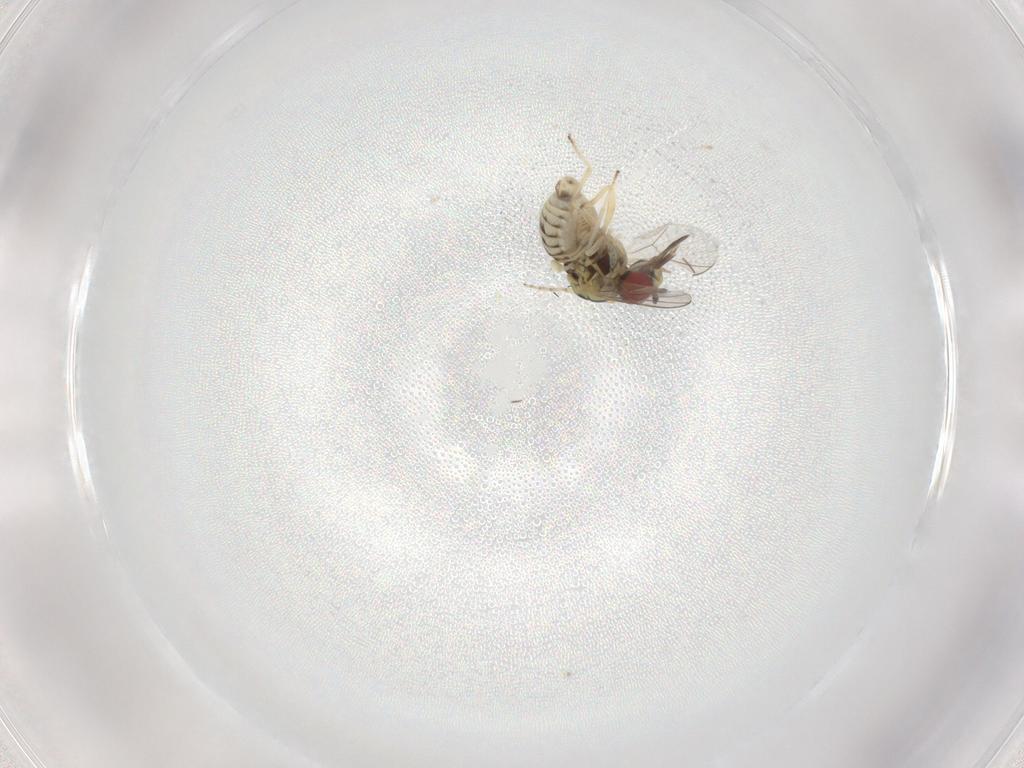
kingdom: Animalia
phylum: Arthropoda
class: Insecta
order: Diptera
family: Bombyliidae
